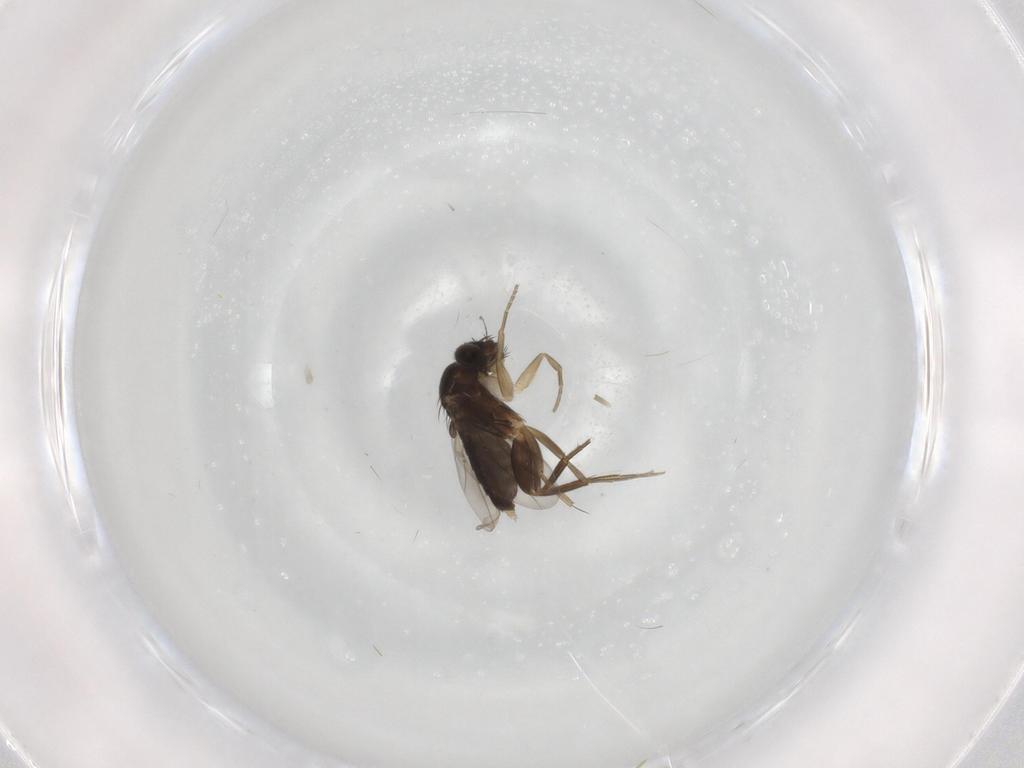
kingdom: Animalia
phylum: Arthropoda
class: Insecta
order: Diptera
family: Phoridae
